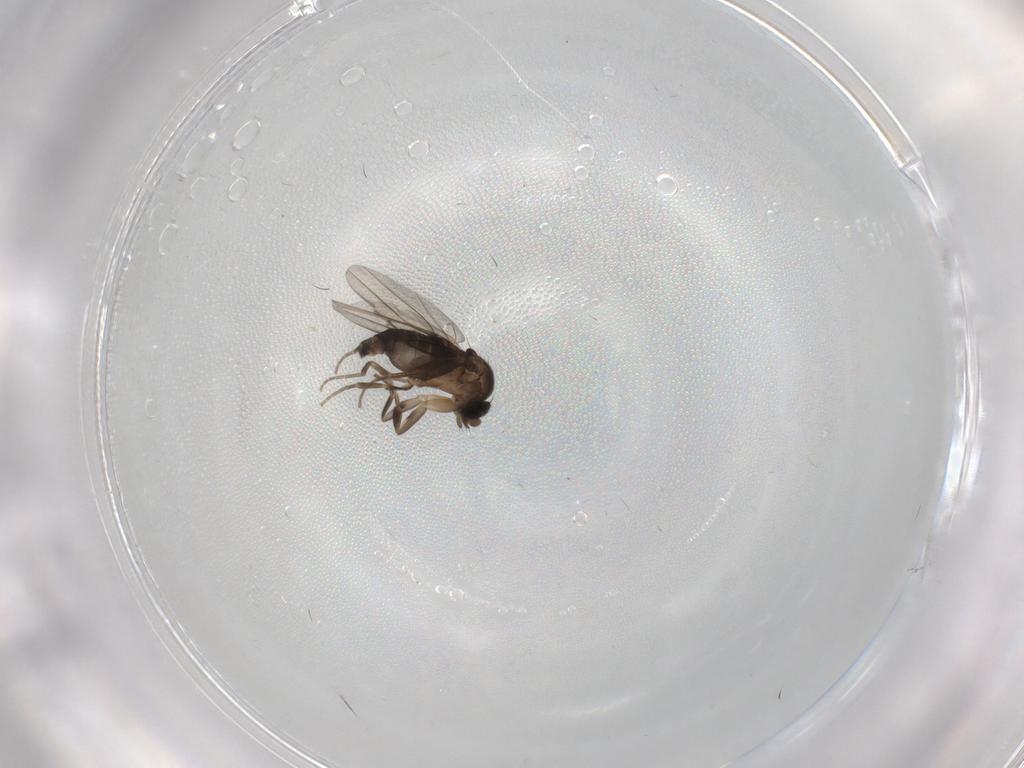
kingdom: Animalia
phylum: Arthropoda
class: Insecta
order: Diptera
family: Phoridae
